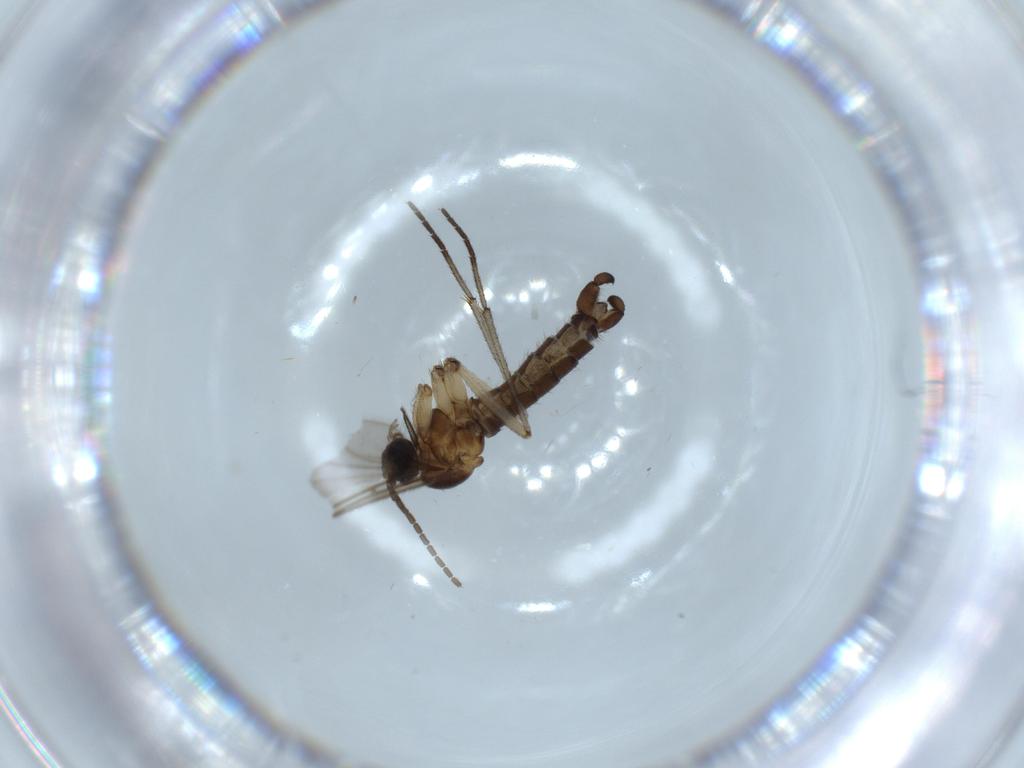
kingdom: Animalia
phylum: Arthropoda
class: Insecta
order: Diptera
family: Sciaridae
